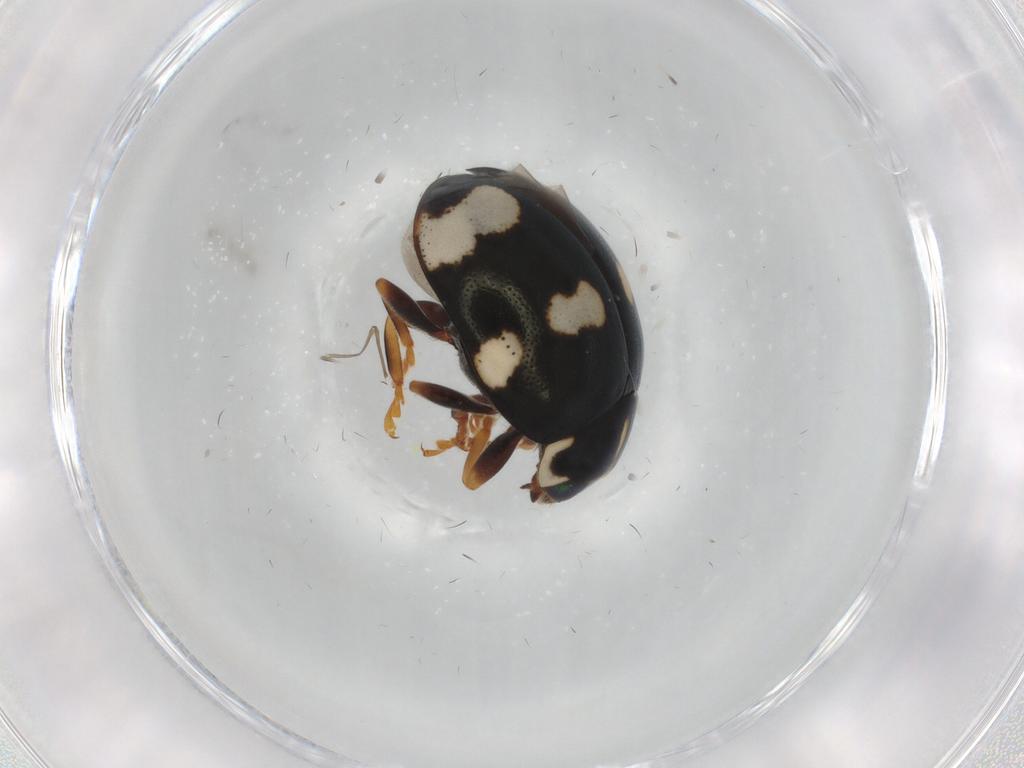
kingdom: Animalia
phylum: Arthropoda
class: Insecta
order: Coleoptera
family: Coccinellidae
